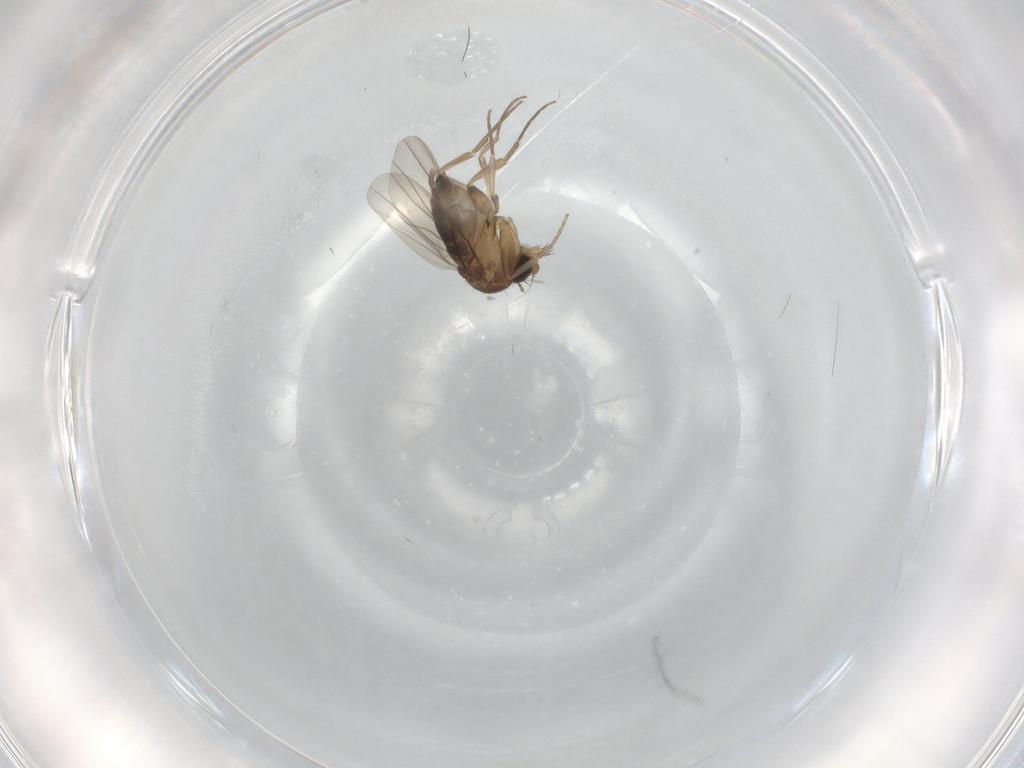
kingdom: Animalia
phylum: Arthropoda
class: Insecta
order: Diptera
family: Phoridae
